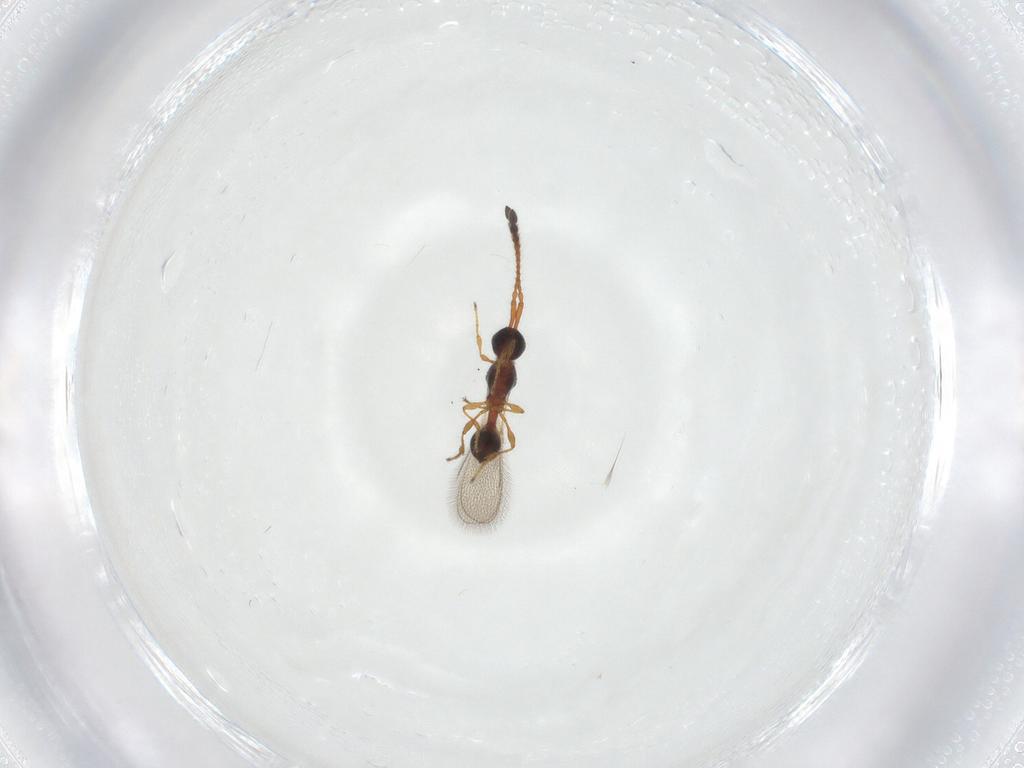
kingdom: Animalia
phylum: Arthropoda
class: Insecta
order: Hymenoptera
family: Diapriidae
